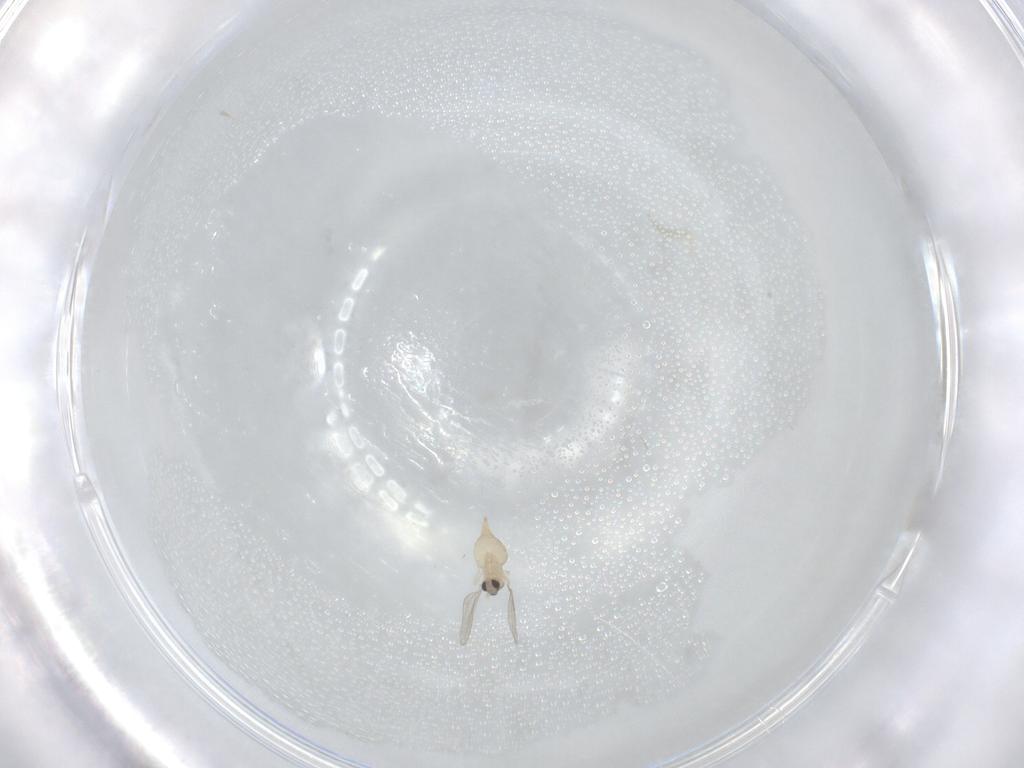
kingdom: Animalia
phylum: Arthropoda
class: Insecta
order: Diptera
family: Cecidomyiidae
